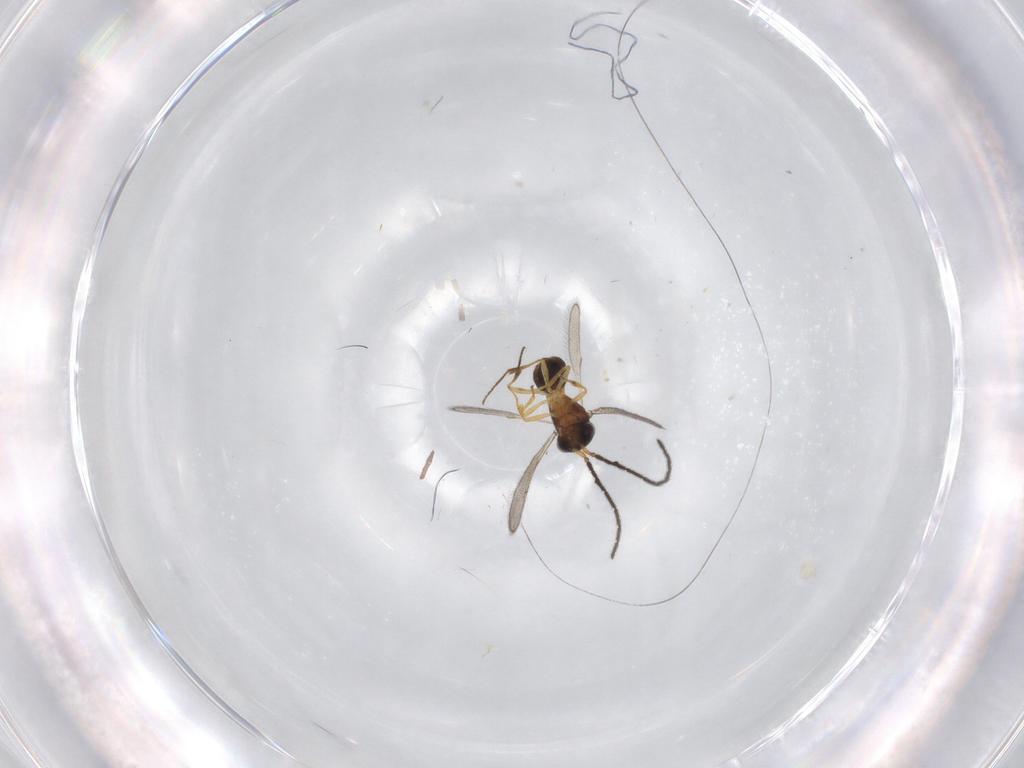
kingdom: Animalia
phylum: Arthropoda
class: Insecta
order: Hymenoptera
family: Scelionidae
